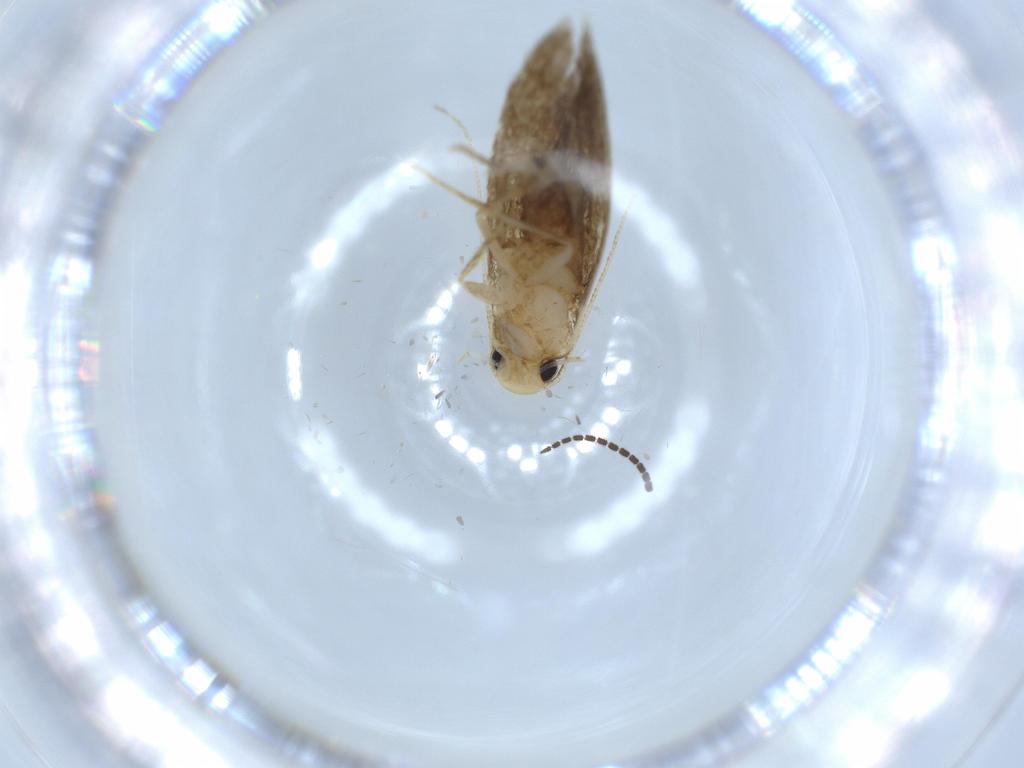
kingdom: Animalia
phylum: Arthropoda
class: Insecta
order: Lepidoptera
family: Tineidae
